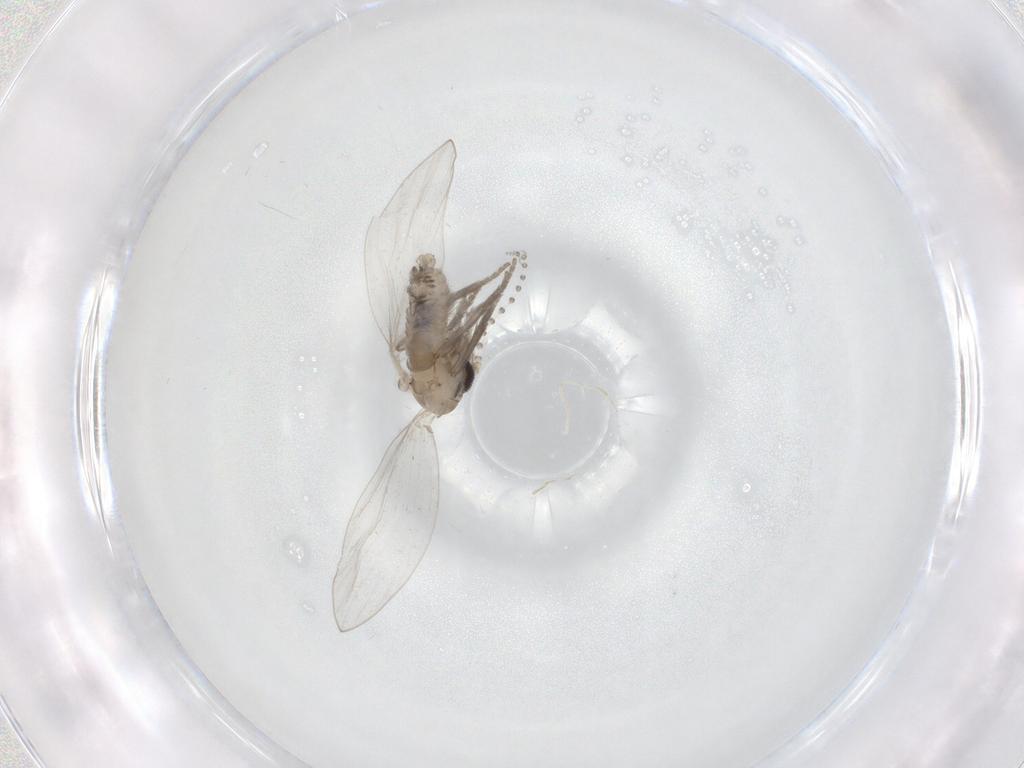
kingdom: Animalia
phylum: Arthropoda
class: Insecta
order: Diptera
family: Psychodidae
